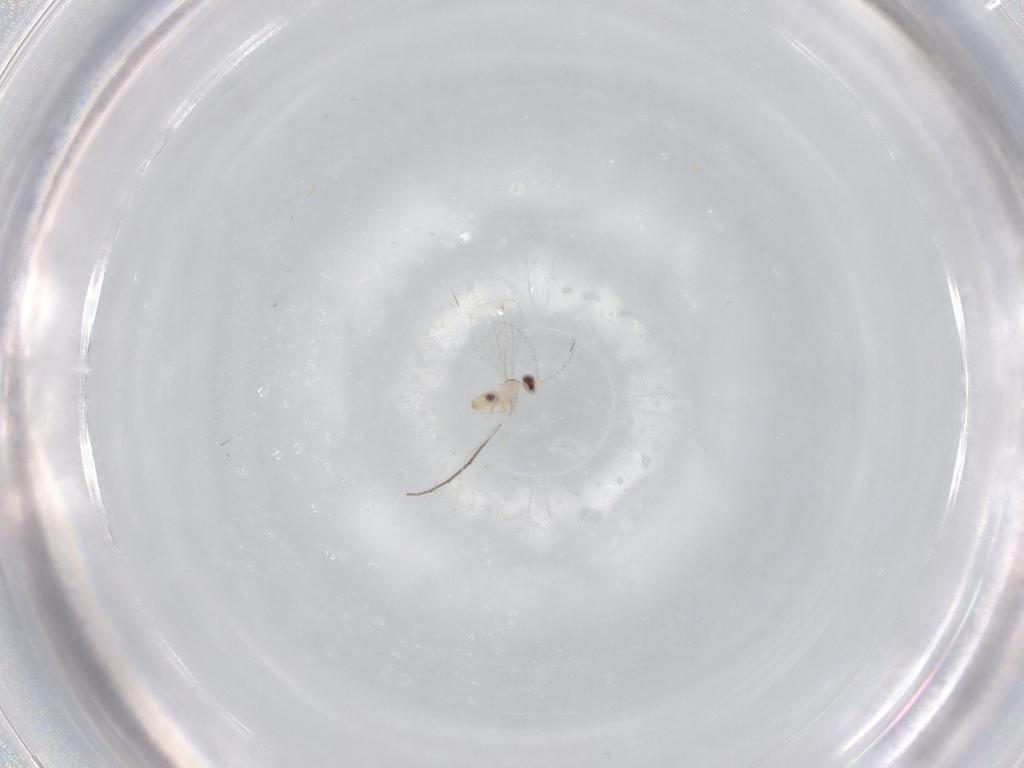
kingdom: Animalia
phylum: Arthropoda
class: Insecta
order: Diptera
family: Cecidomyiidae
